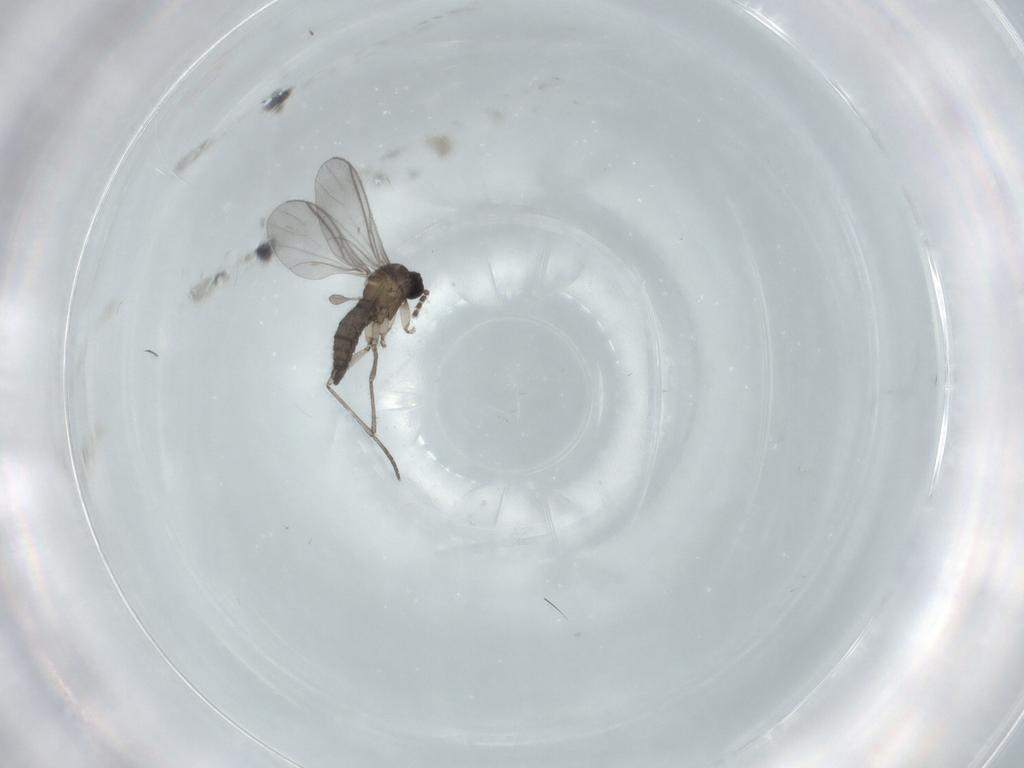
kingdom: Animalia
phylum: Arthropoda
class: Insecta
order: Diptera
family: Sciaridae
